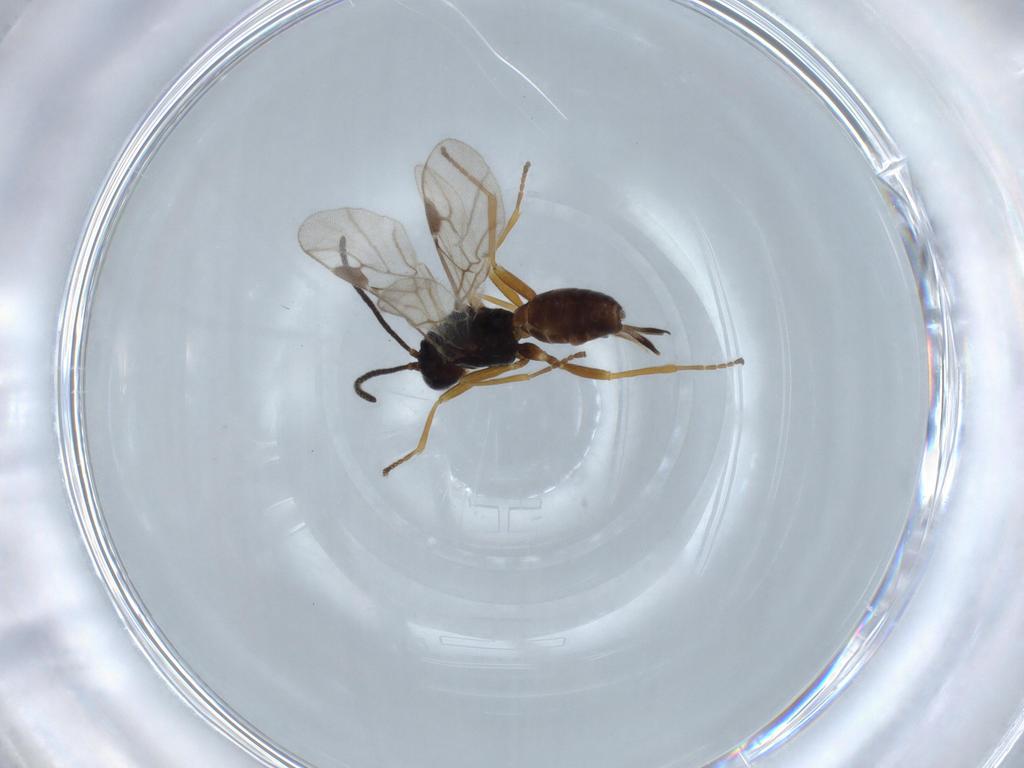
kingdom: Animalia
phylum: Arthropoda
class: Insecta
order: Hymenoptera
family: Braconidae
